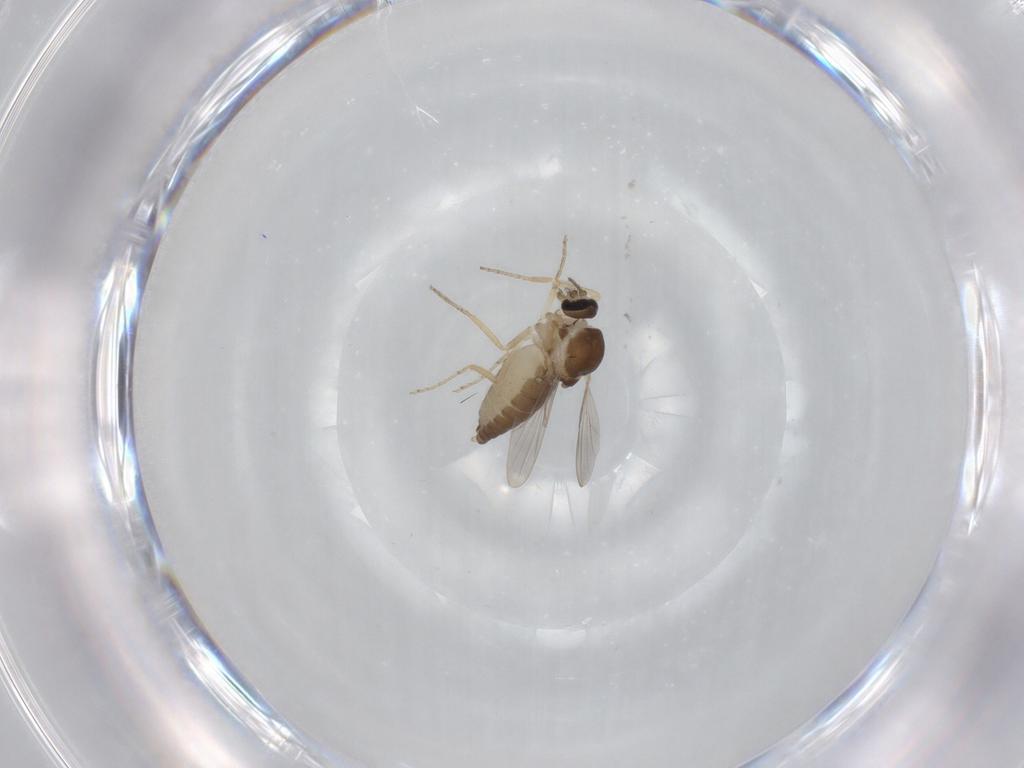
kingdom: Animalia
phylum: Arthropoda
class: Insecta
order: Diptera
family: Ceratopogonidae
